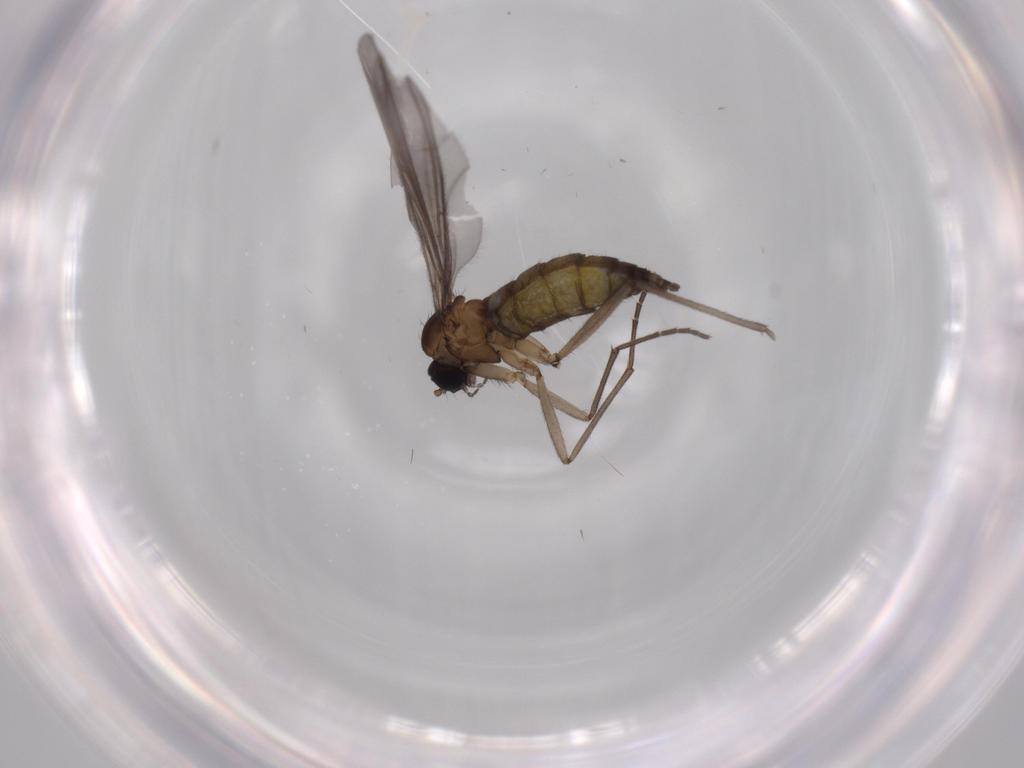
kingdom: Animalia
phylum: Arthropoda
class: Insecta
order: Diptera
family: Sciaridae
